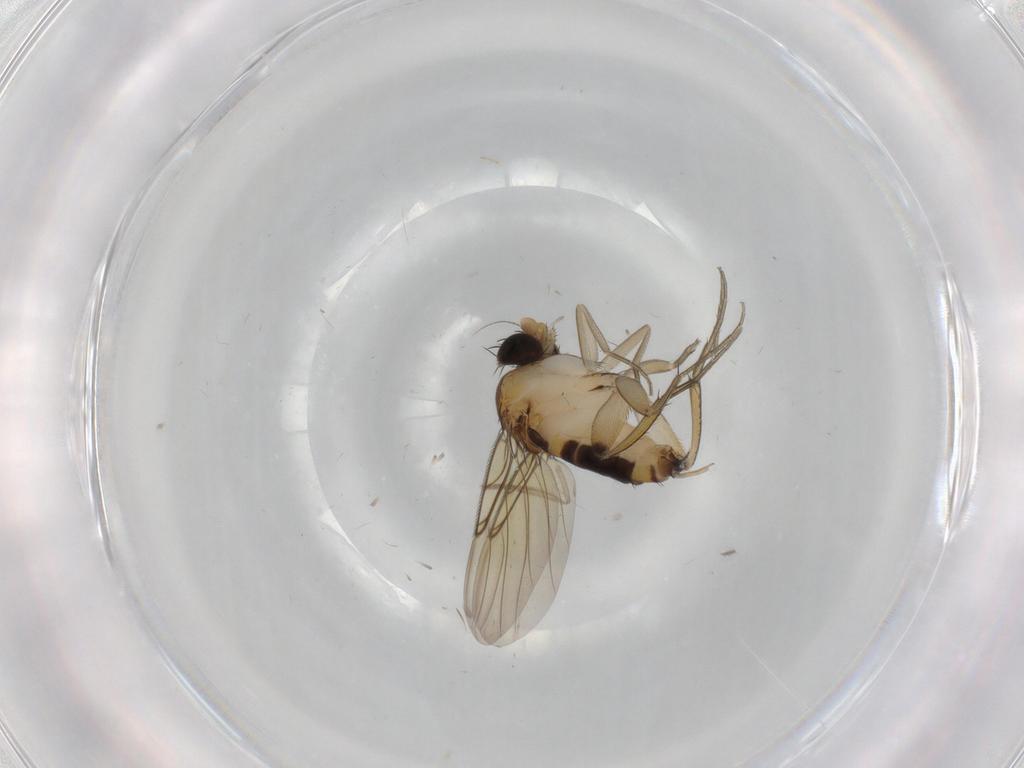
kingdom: Animalia
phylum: Arthropoda
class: Insecta
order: Diptera
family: Phoridae
